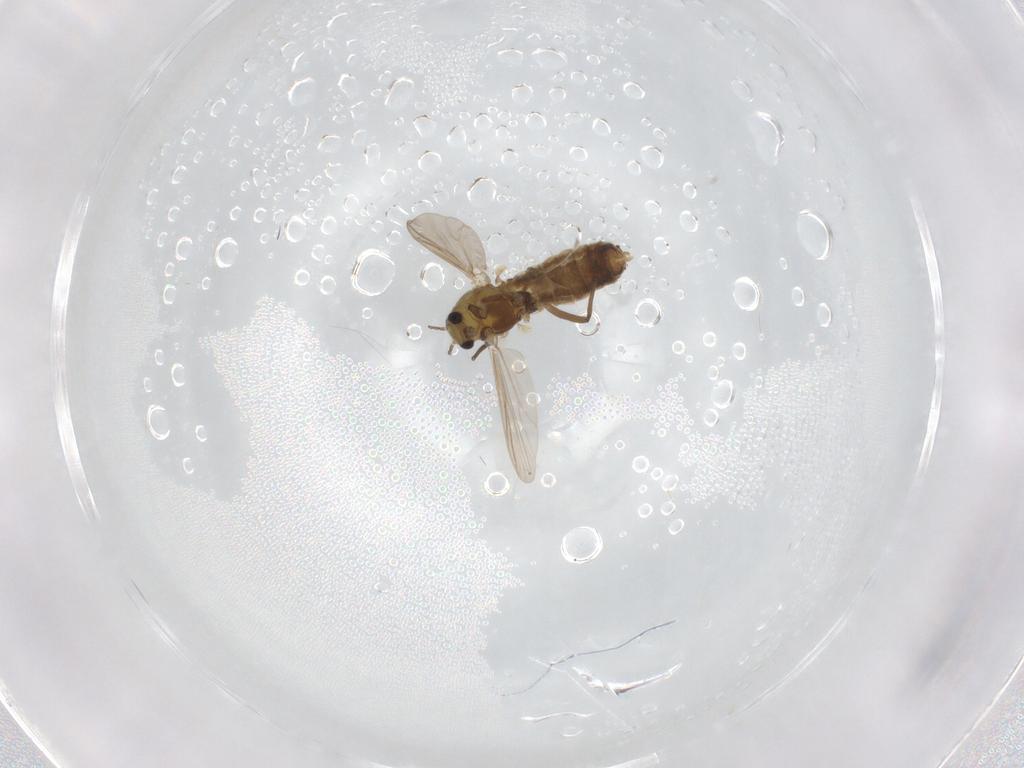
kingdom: Animalia
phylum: Arthropoda
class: Insecta
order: Diptera
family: Chironomidae
